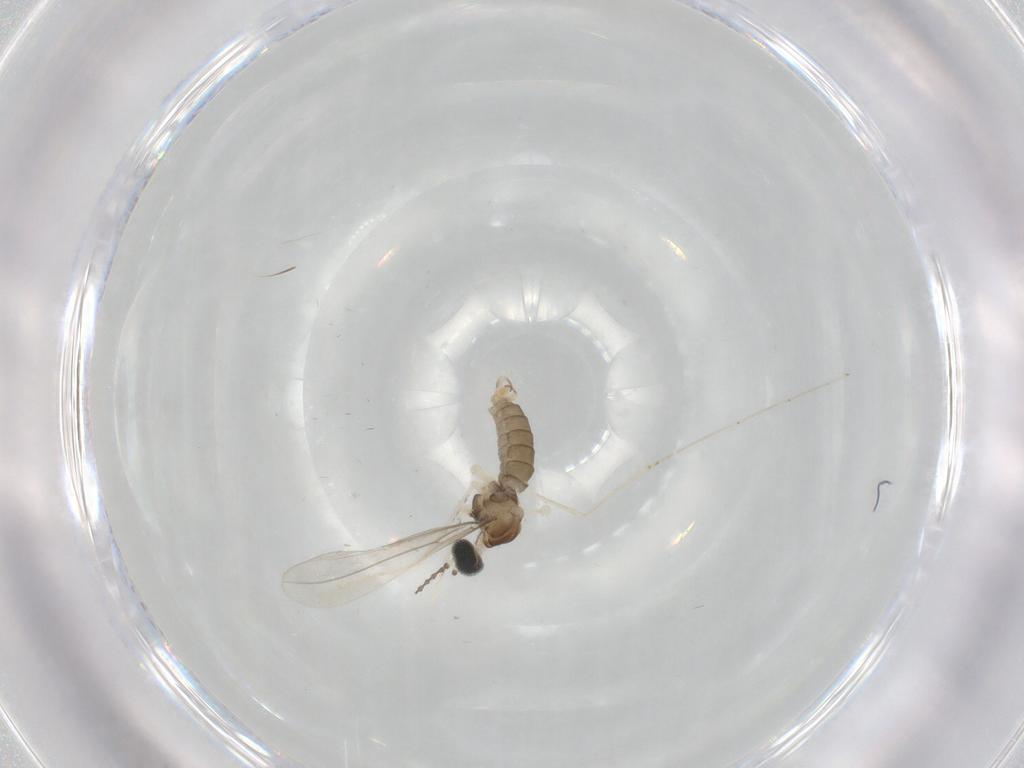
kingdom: Animalia
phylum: Arthropoda
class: Insecta
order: Diptera
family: Cecidomyiidae
